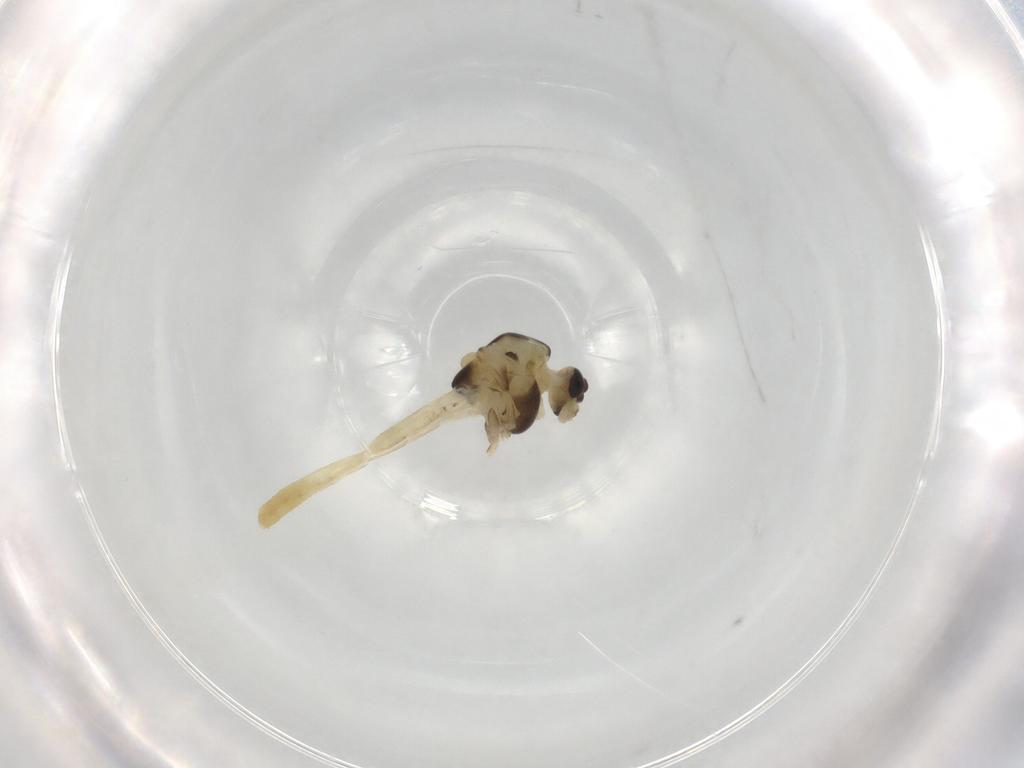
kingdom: Animalia
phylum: Arthropoda
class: Insecta
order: Diptera
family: Chironomidae
